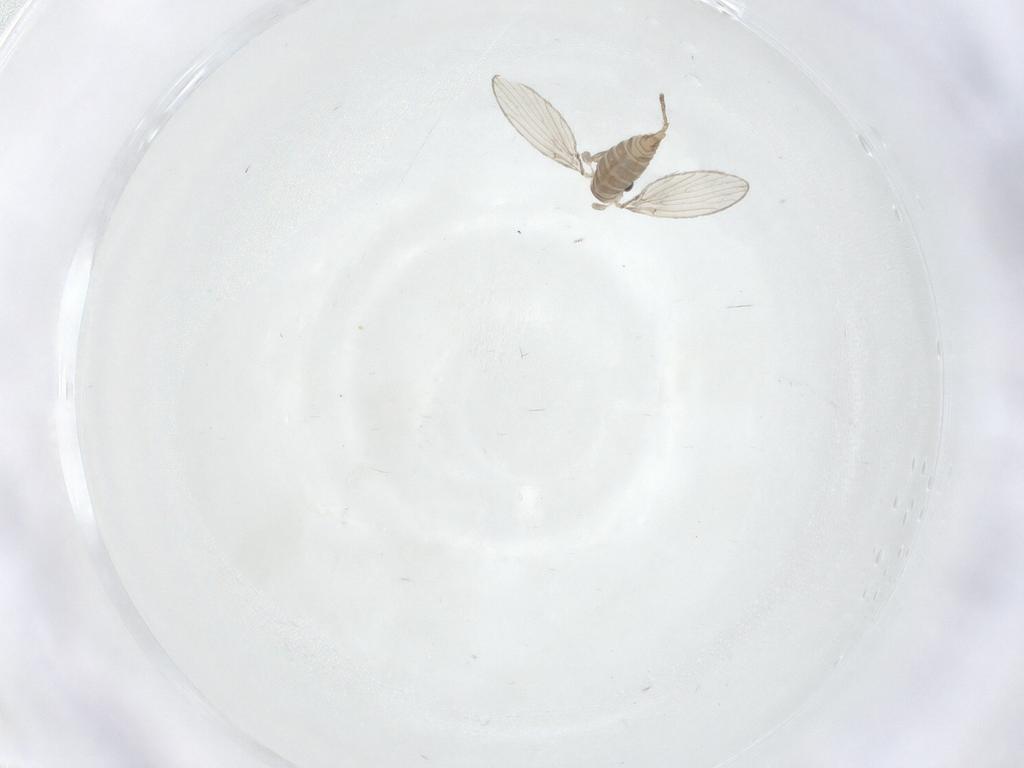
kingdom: Animalia
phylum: Arthropoda
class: Insecta
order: Diptera
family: Psychodidae
